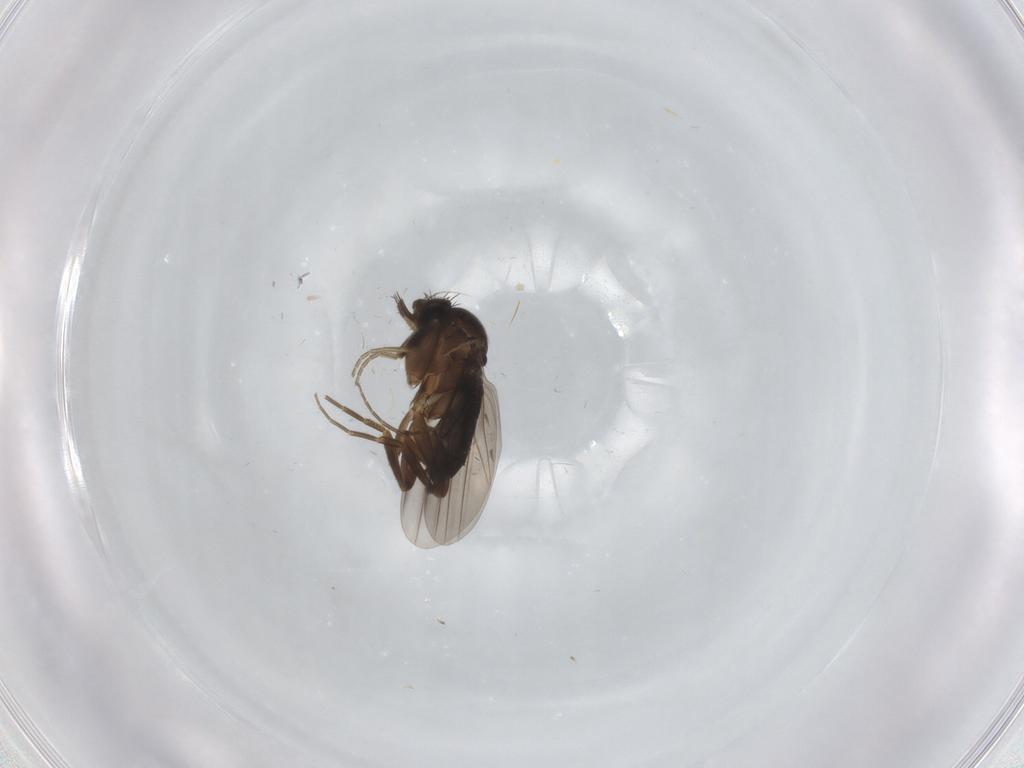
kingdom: Animalia
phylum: Arthropoda
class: Insecta
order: Diptera
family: Phoridae
